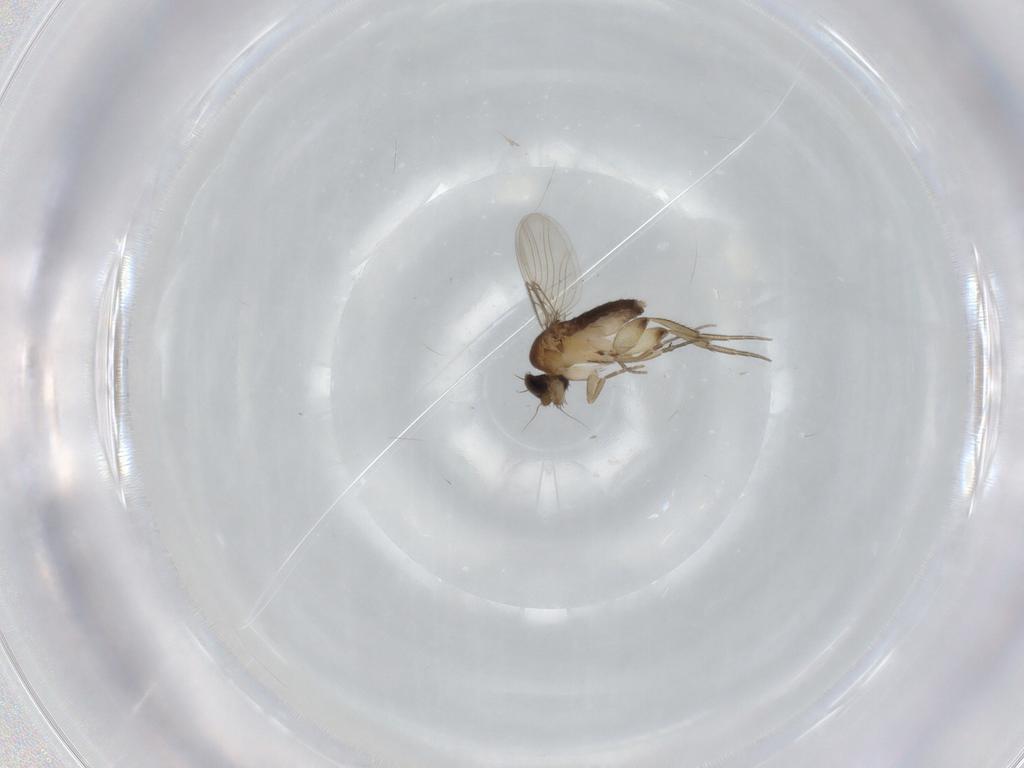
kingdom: Animalia
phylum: Arthropoda
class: Insecta
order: Diptera
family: Phoridae
